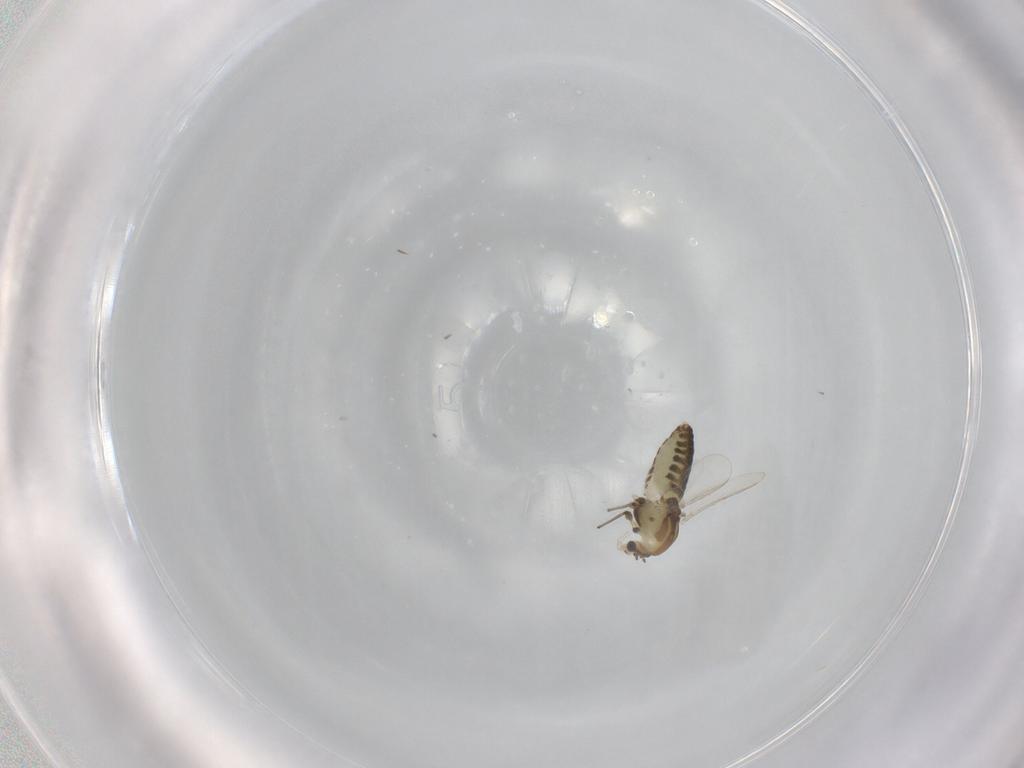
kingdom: Animalia
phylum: Arthropoda
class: Insecta
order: Diptera
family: Chironomidae
